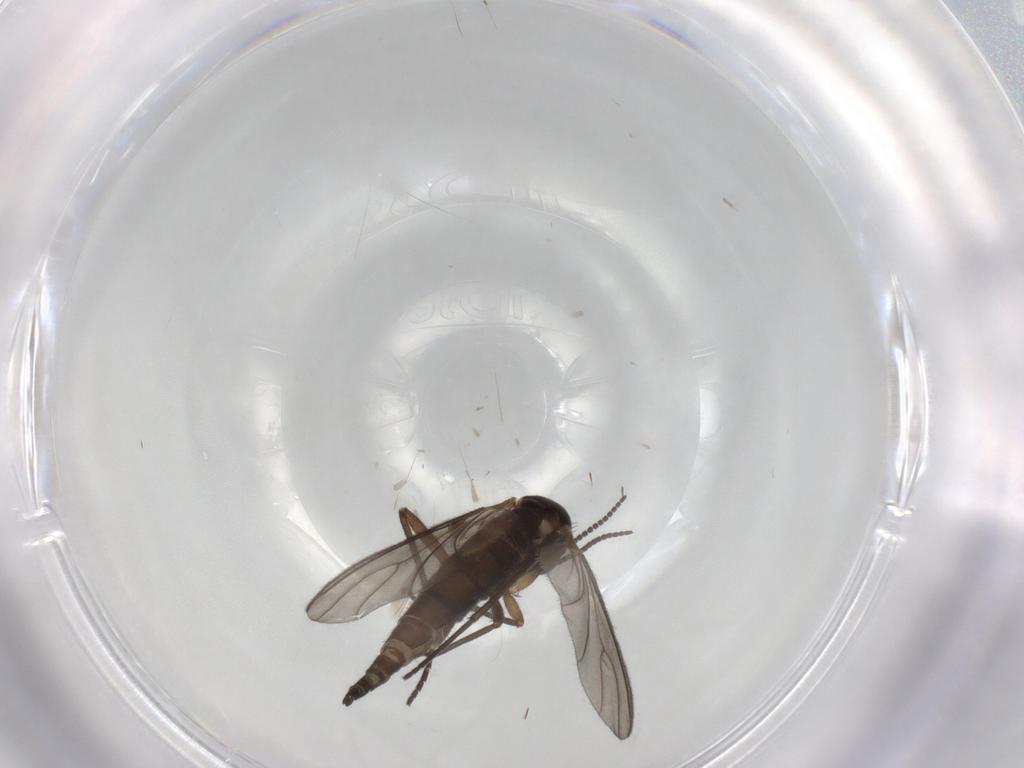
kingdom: Animalia
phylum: Arthropoda
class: Insecta
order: Diptera
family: Sciaridae
